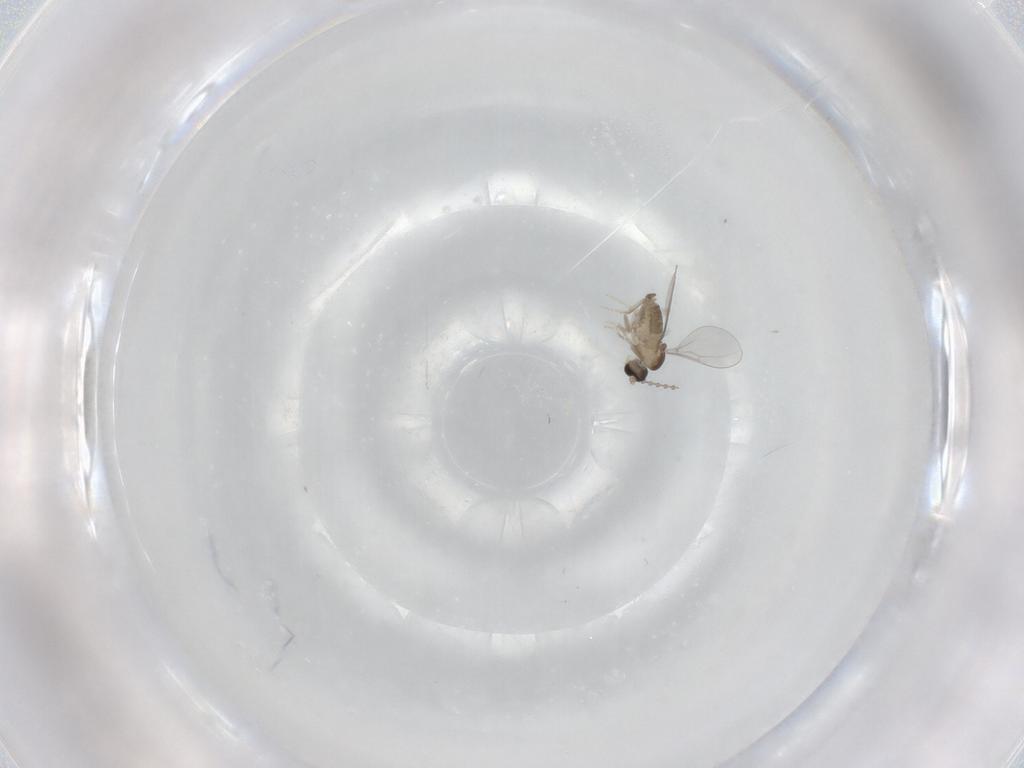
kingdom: Animalia
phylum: Arthropoda
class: Insecta
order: Diptera
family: Cecidomyiidae
